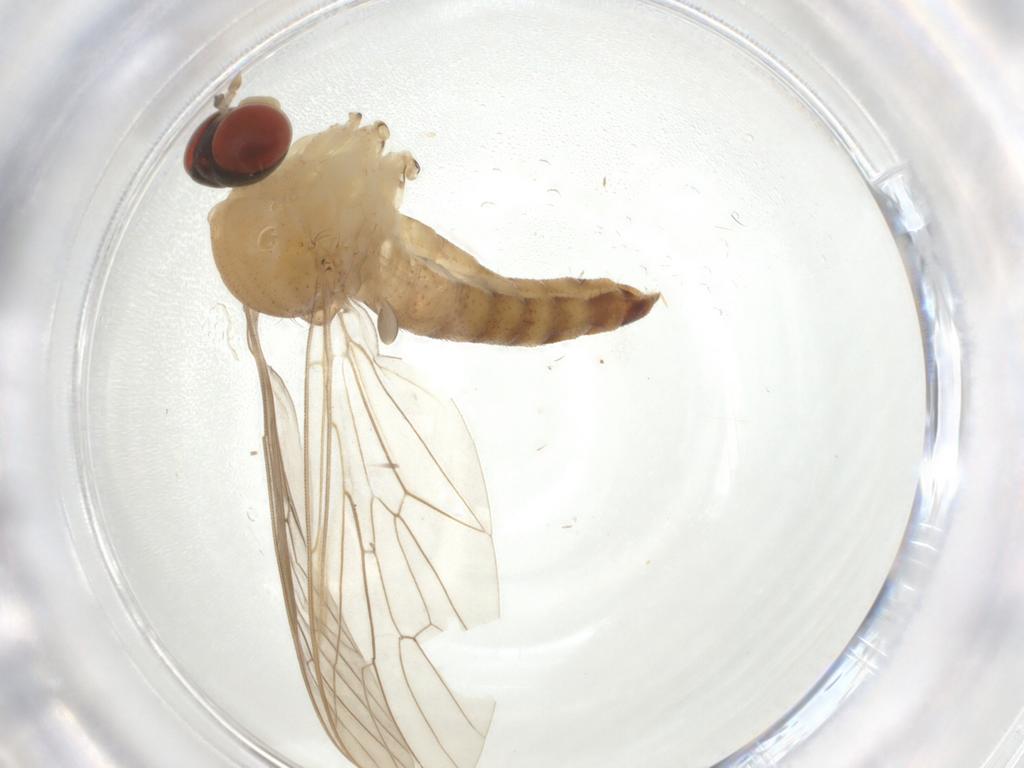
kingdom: Animalia
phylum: Arthropoda
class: Insecta
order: Diptera
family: Apsilocephalidae
